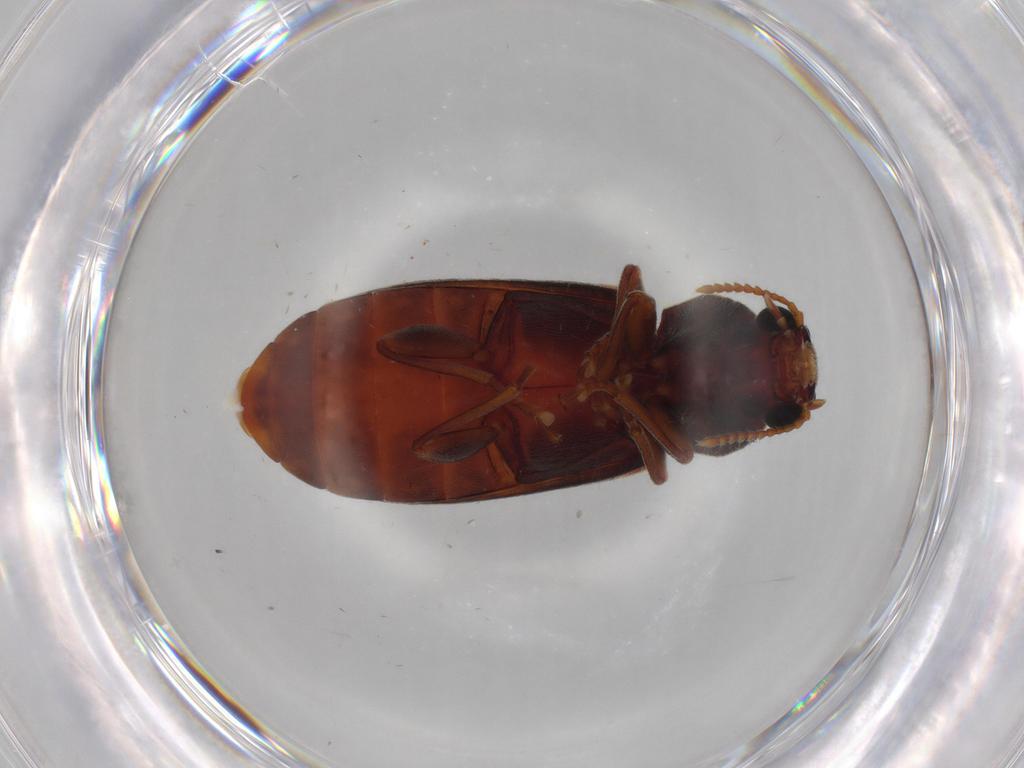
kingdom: Animalia
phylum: Arthropoda
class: Insecta
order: Coleoptera
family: Mycteridae
